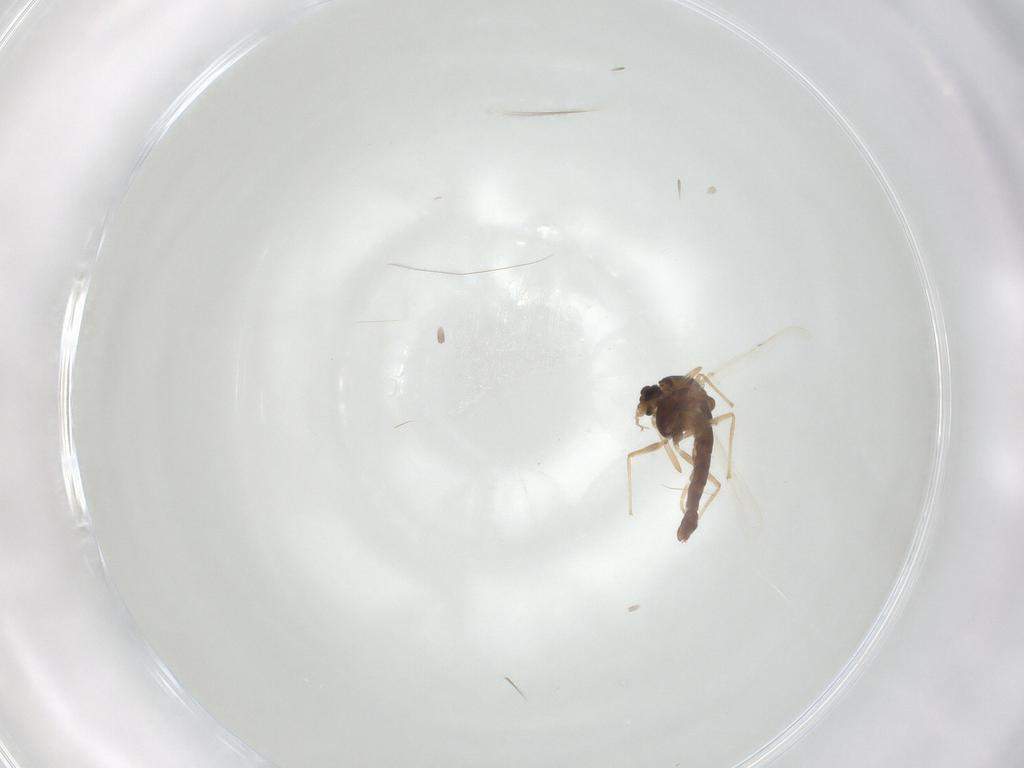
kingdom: Animalia
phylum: Arthropoda
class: Insecta
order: Diptera
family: Chironomidae
